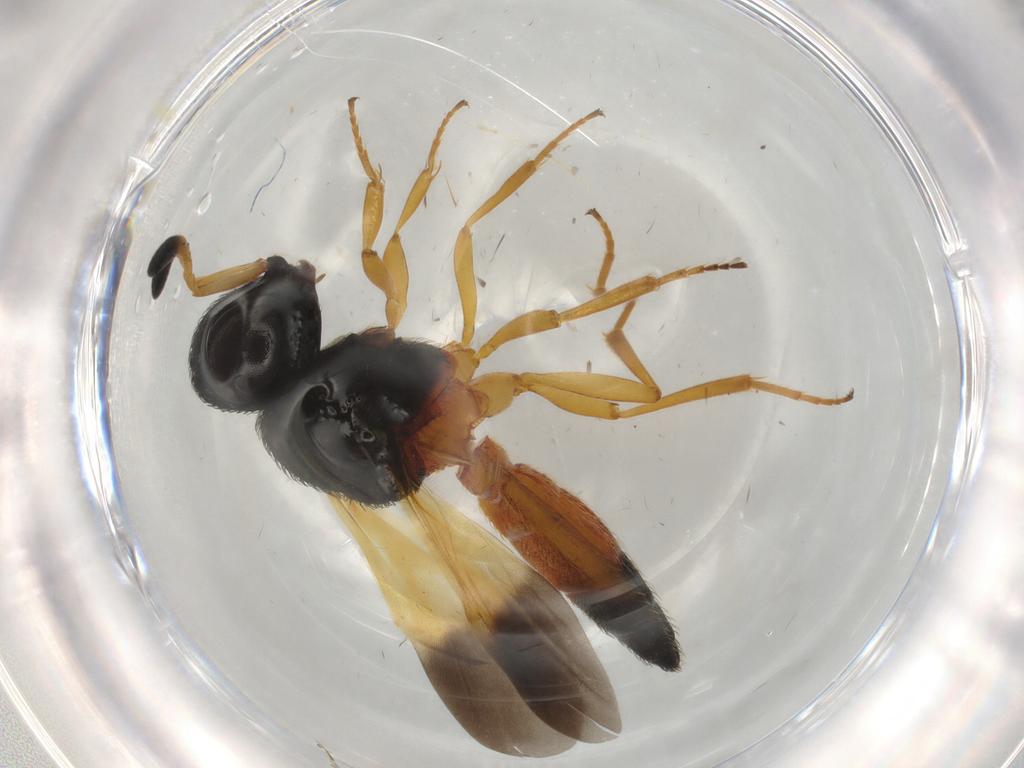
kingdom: Animalia
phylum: Arthropoda
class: Insecta
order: Hymenoptera
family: Scelionidae
